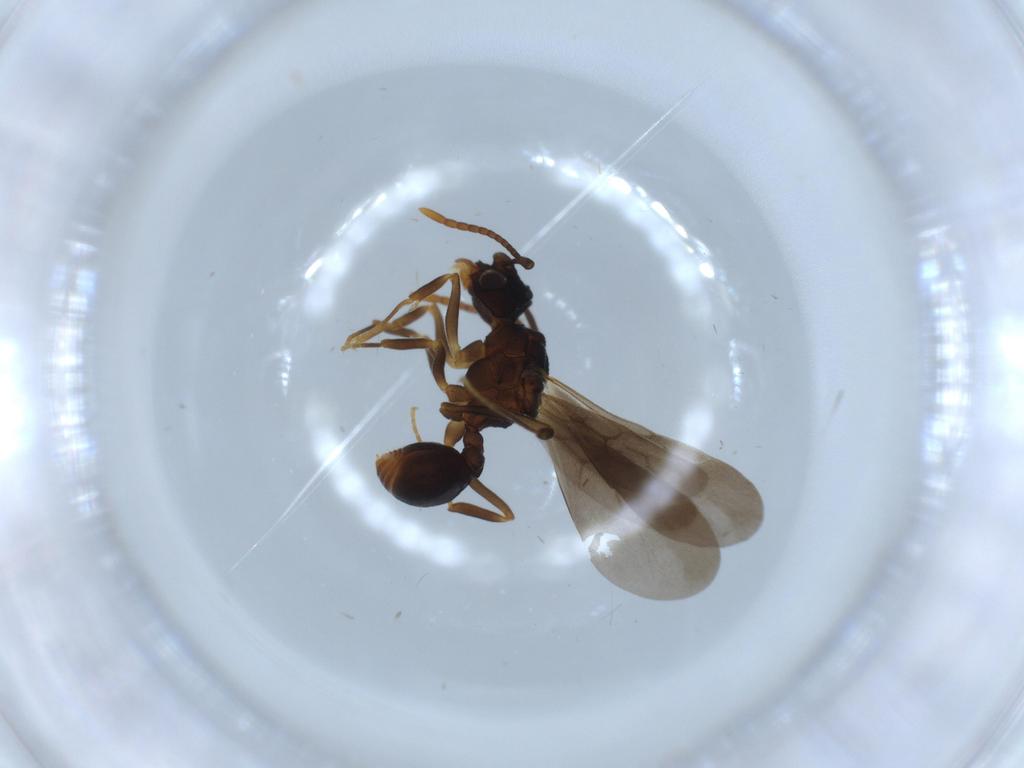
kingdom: Animalia
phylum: Arthropoda
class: Insecta
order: Hymenoptera
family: Formicidae
